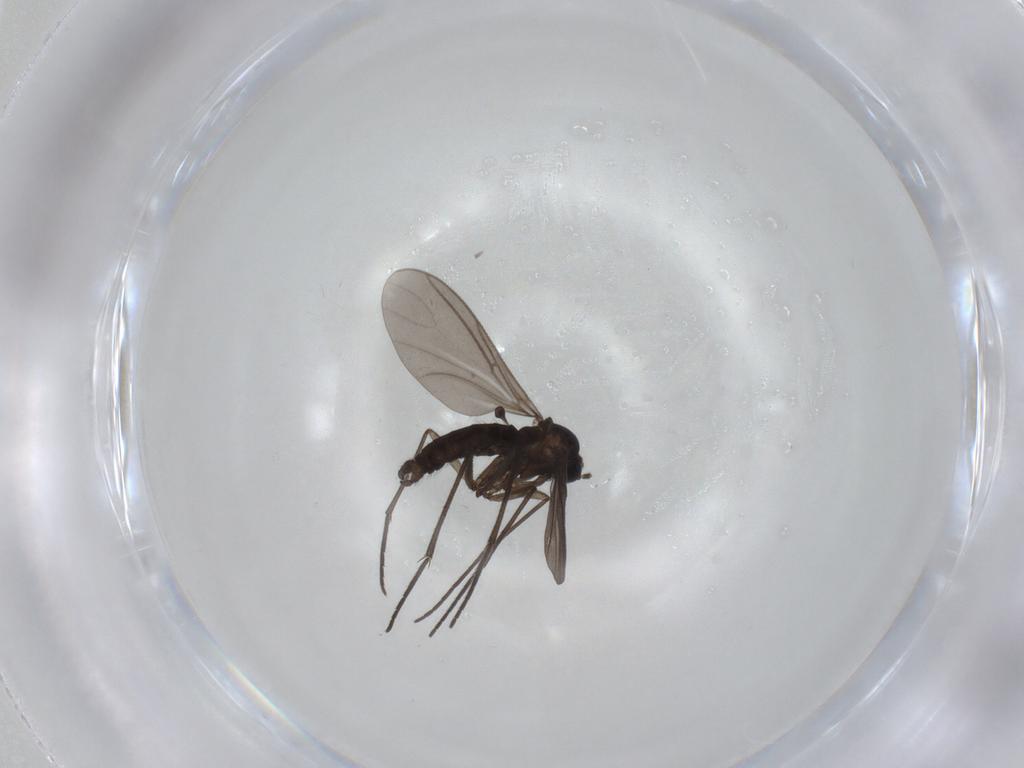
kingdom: Animalia
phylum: Arthropoda
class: Insecta
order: Diptera
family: Sciaridae
